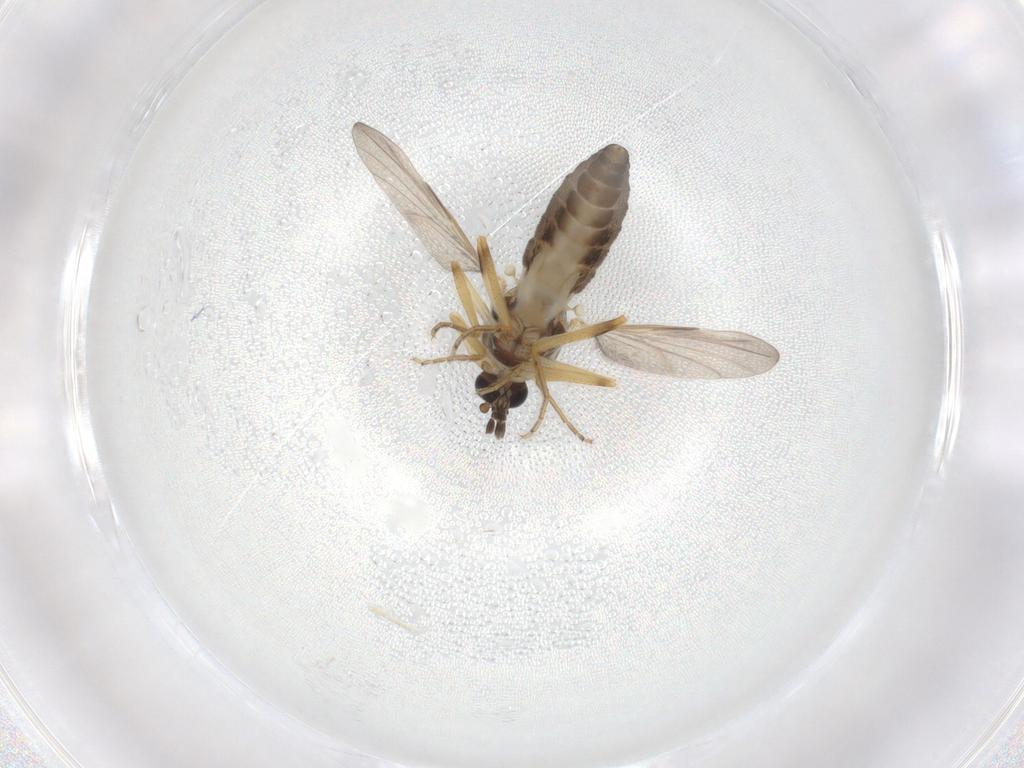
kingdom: Animalia
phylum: Arthropoda
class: Insecta
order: Diptera
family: Ceratopogonidae
